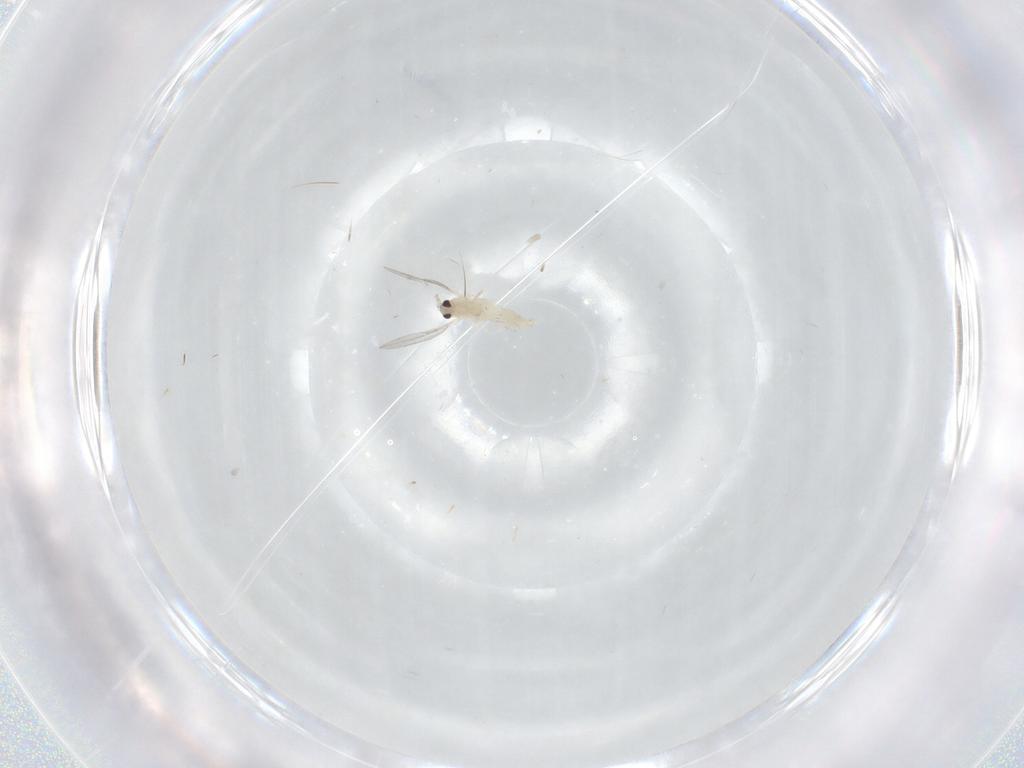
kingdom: Animalia
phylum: Arthropoda
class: Insecta
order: Diptera
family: Cecidomyiidae
